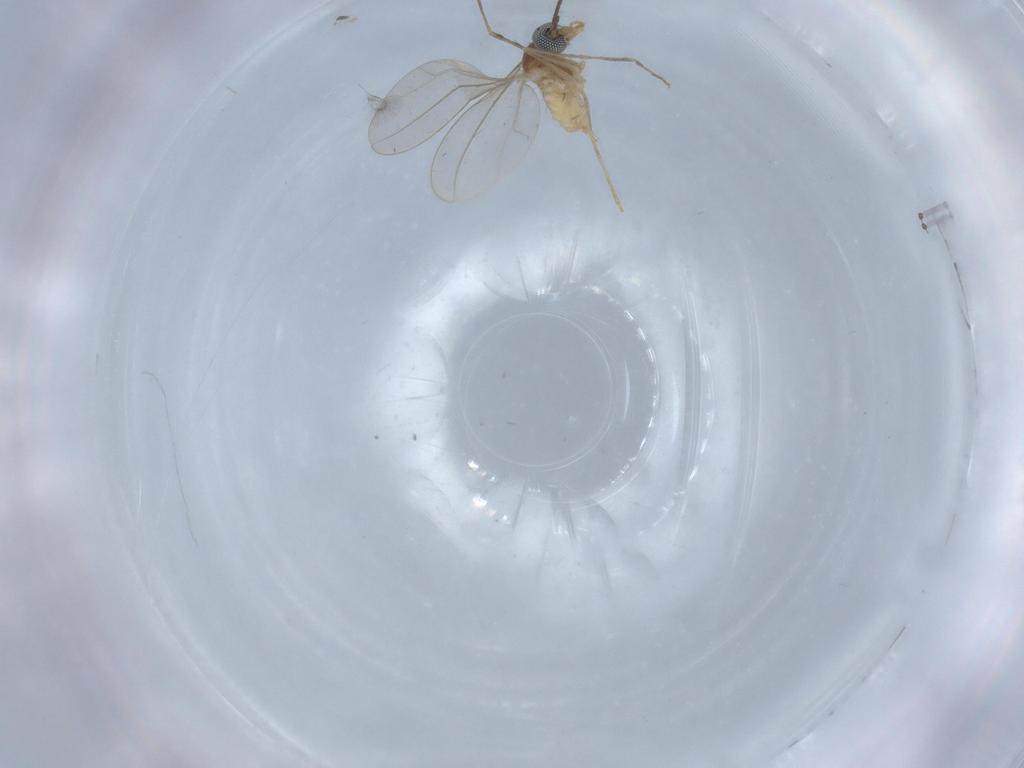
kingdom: Animalia
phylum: Arthropoda
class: Insecta
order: Diptera
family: Cecidomyiidae
